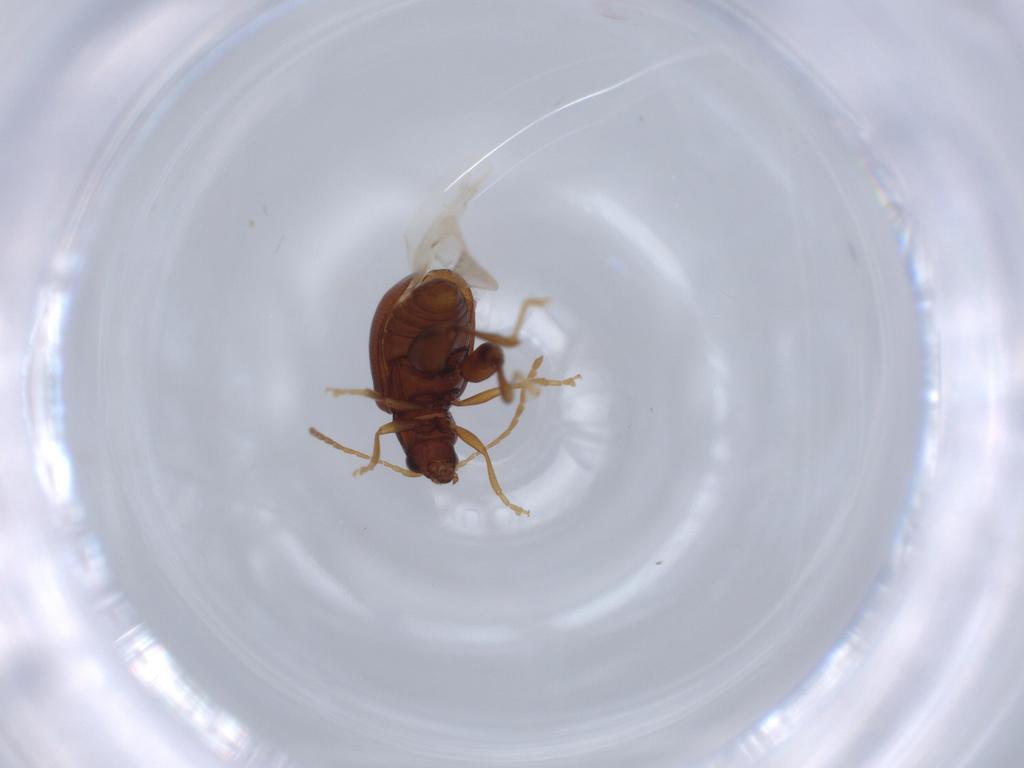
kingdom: Animalia
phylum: Arthropoda
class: Insecta
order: Coleoptera
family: Chrysomelidae
